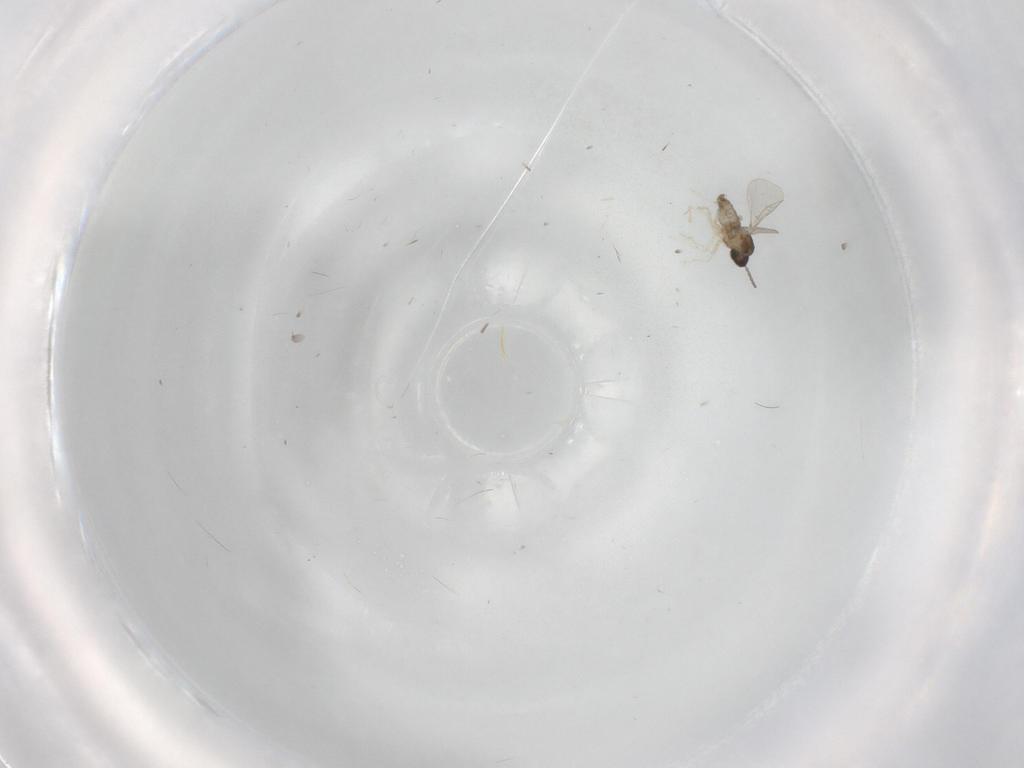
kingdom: Animalia
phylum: Arthropoda
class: Insecta
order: Diptera
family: Cecidomyiidae
